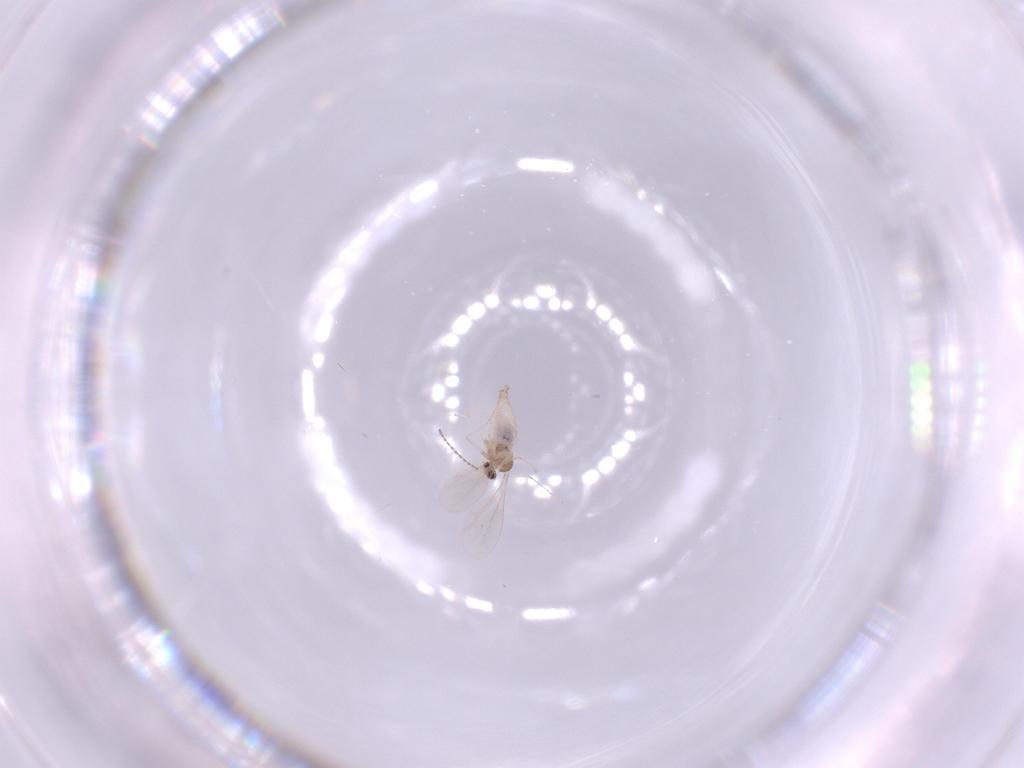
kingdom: Animalia
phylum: Arthropoda
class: Insecta
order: Diptera
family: Cecidomyiidae
